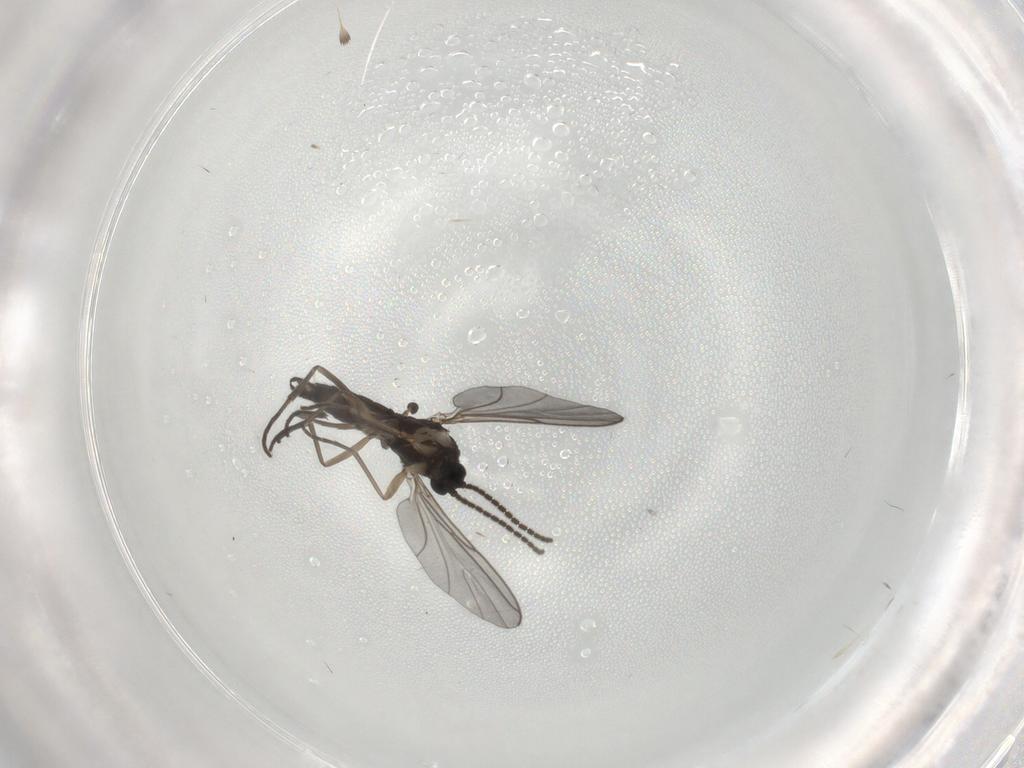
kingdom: Animalia
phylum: Arthropoda
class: Insecta
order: Diptera
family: Sciaridae
